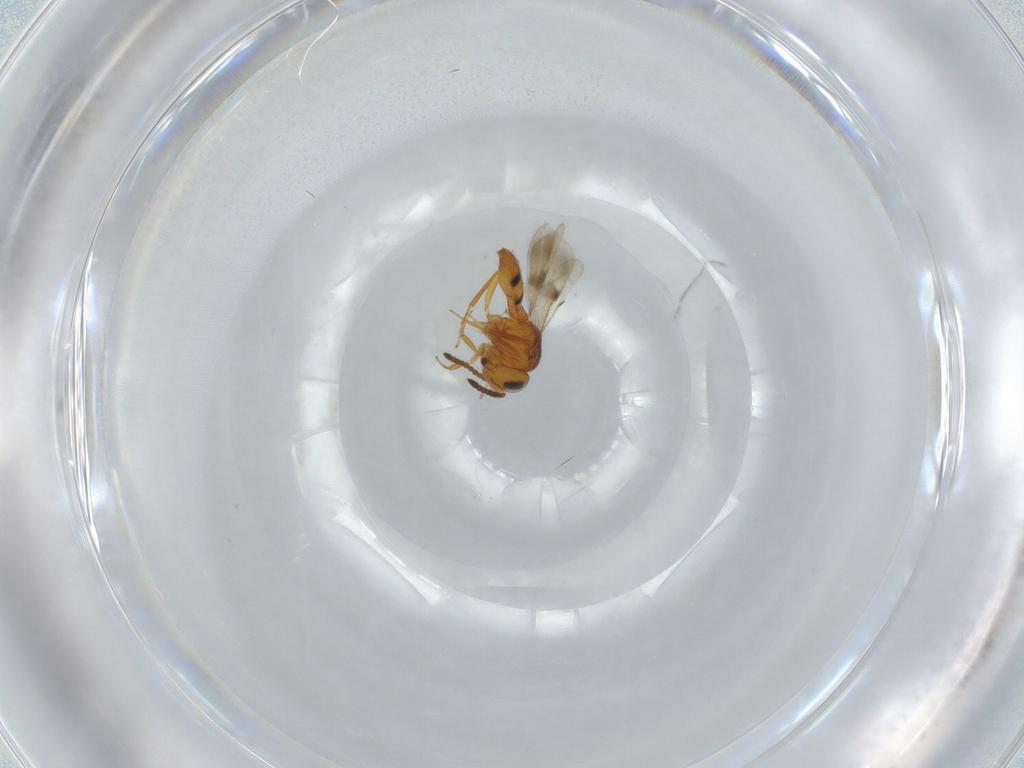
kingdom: Animalia
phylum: Arthropoda
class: Insecta
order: Hymenoptera
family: Scelionidae
